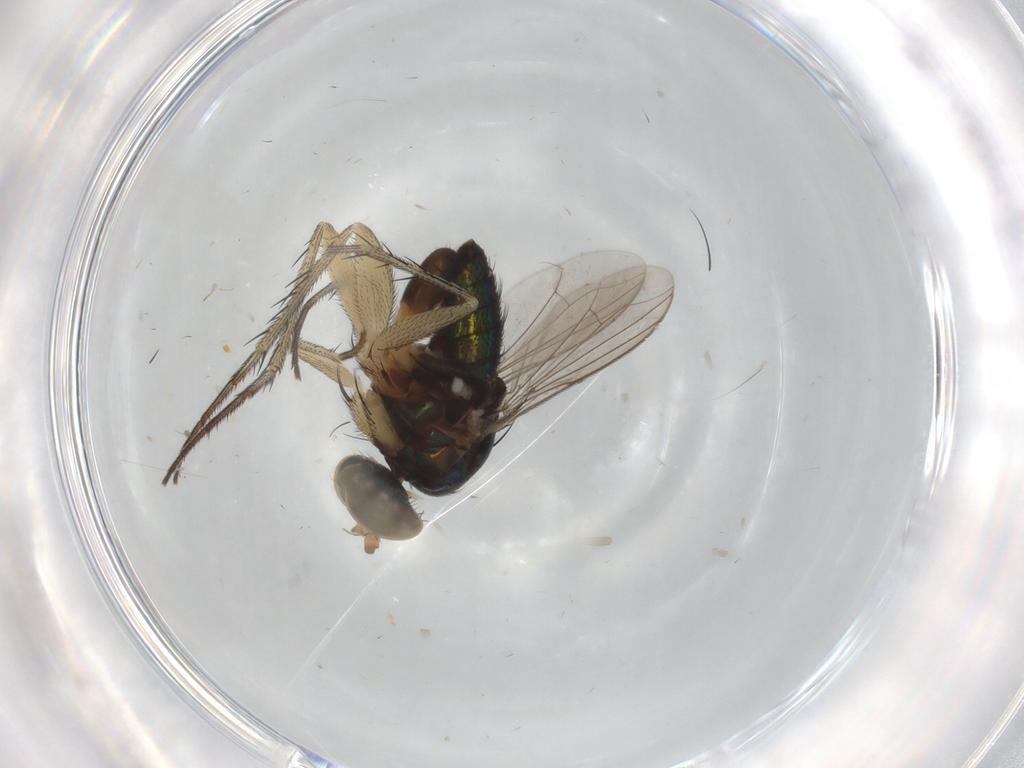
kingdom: Animalia
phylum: Arthropoda
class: Insecta
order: Diptera
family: Dolichopodidae
